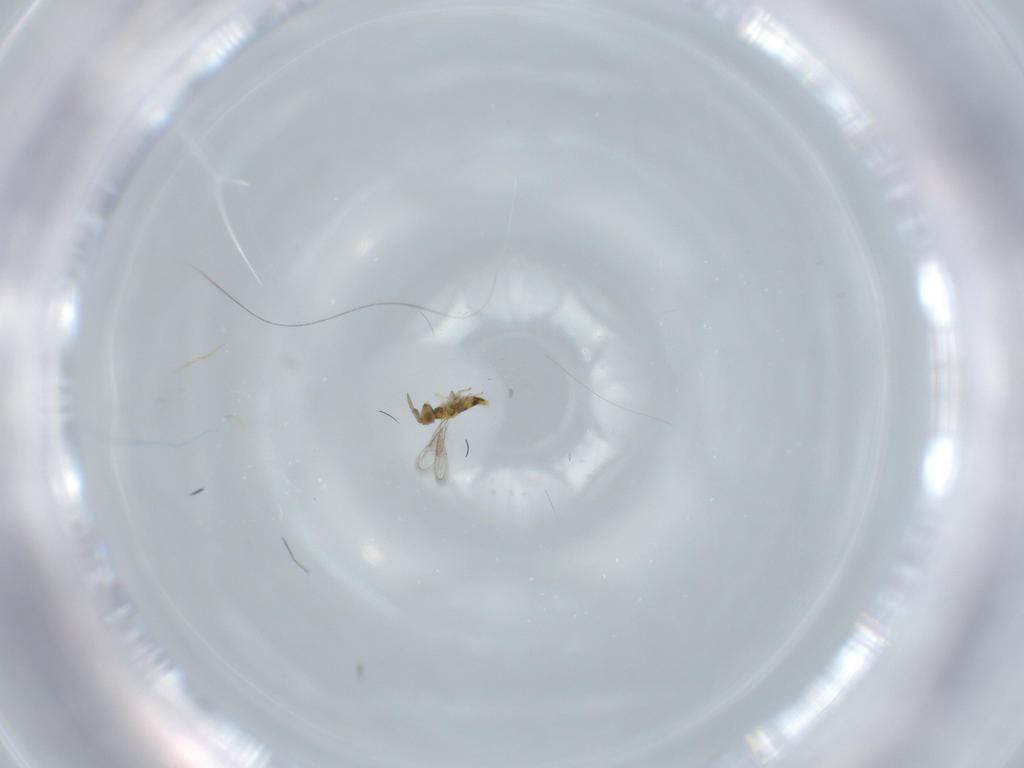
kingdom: Animalia
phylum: Arthropoda
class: Insecta
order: Hymenoptera
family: Aphelinidae
